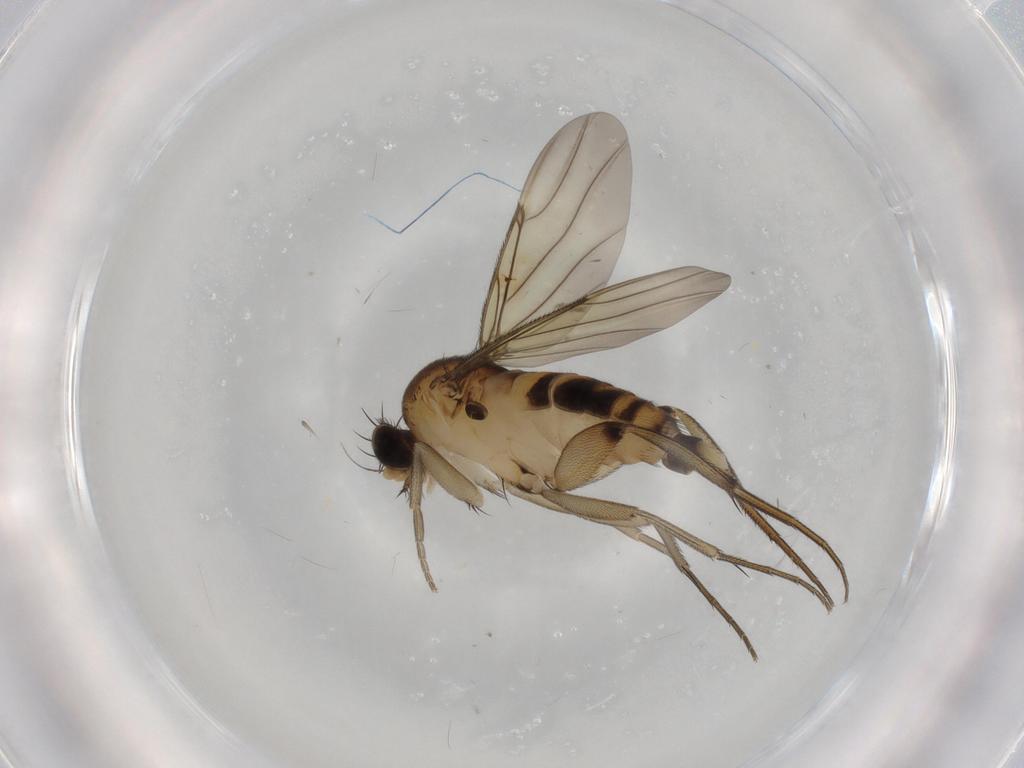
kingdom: Animalia
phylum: Arthropoda
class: Insecta
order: Diptera
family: Phoridae
